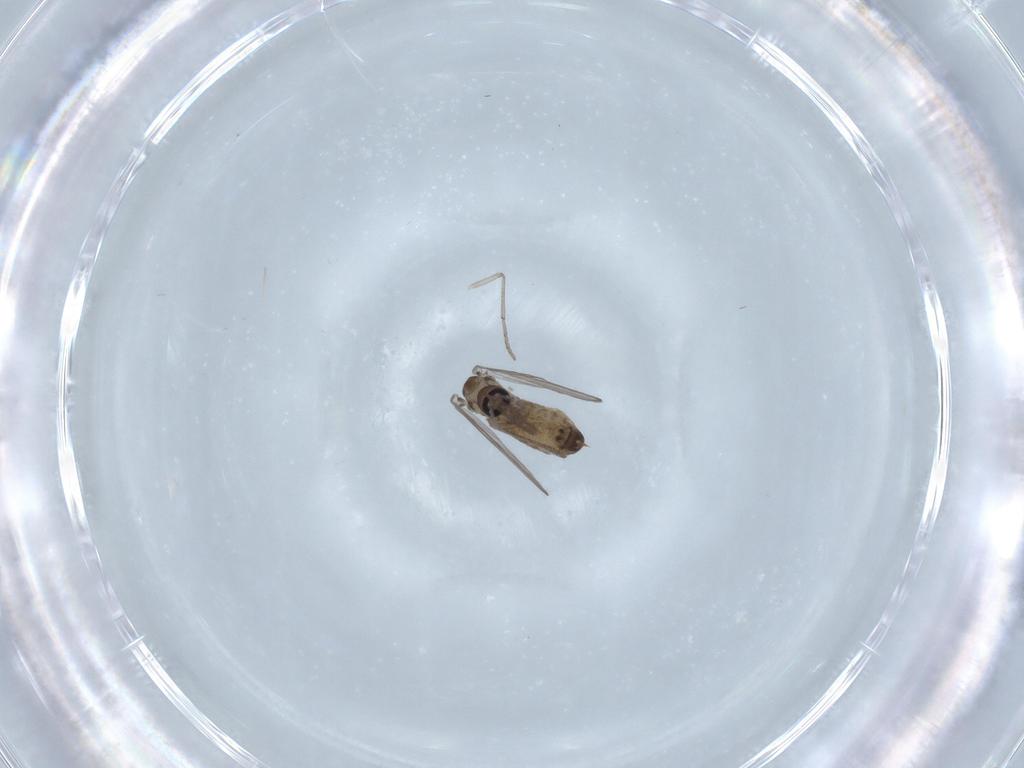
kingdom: Animalia
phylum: Arthropoda
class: Insecta
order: Diptera
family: Psychodidae
